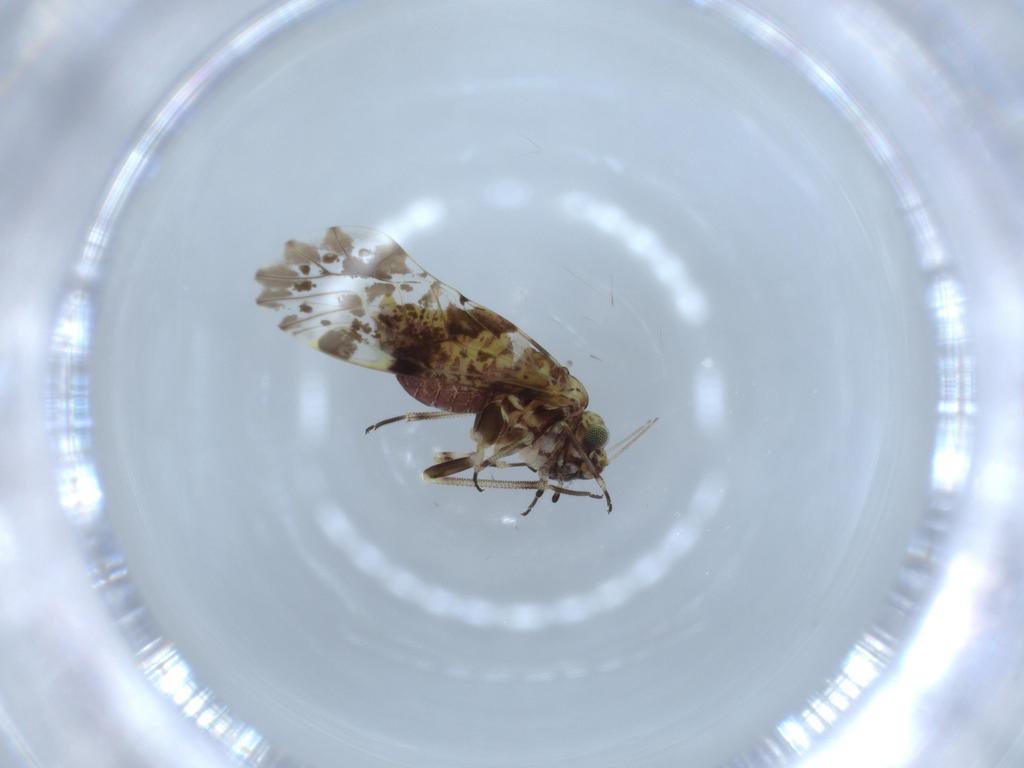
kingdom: Animalia
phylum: Arthropoda
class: Insecta
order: Psocodea
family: Psocidae
